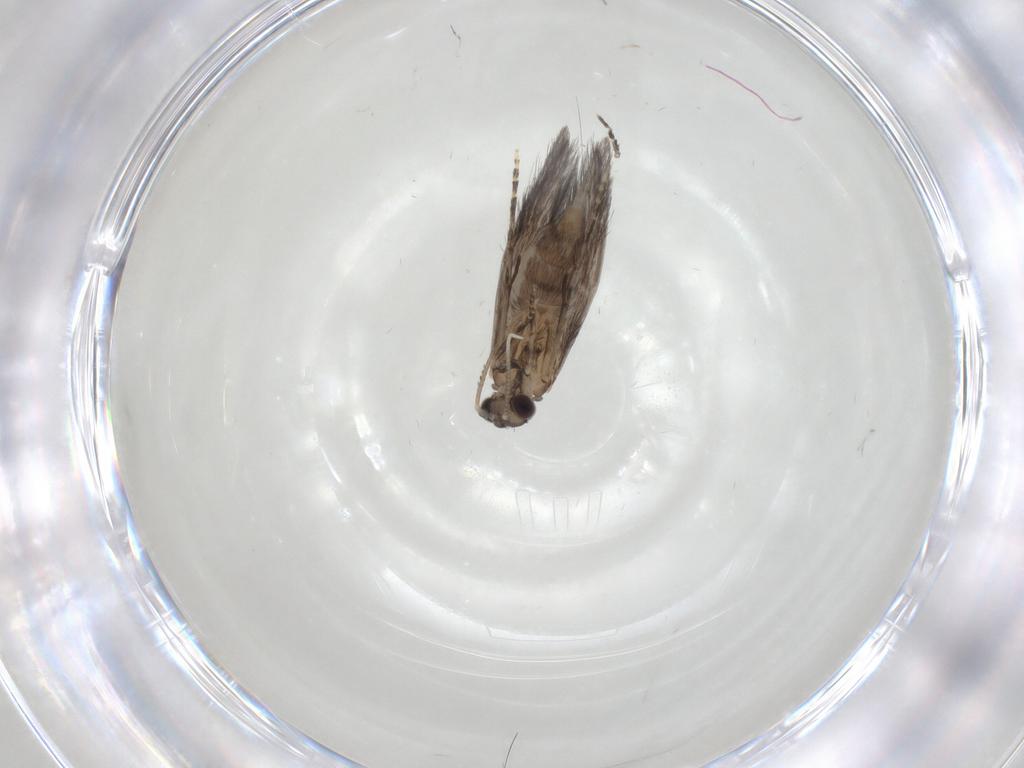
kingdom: Animalia
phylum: Arthropoda
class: Insecta
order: Trichoptera
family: Hydroptilidae
